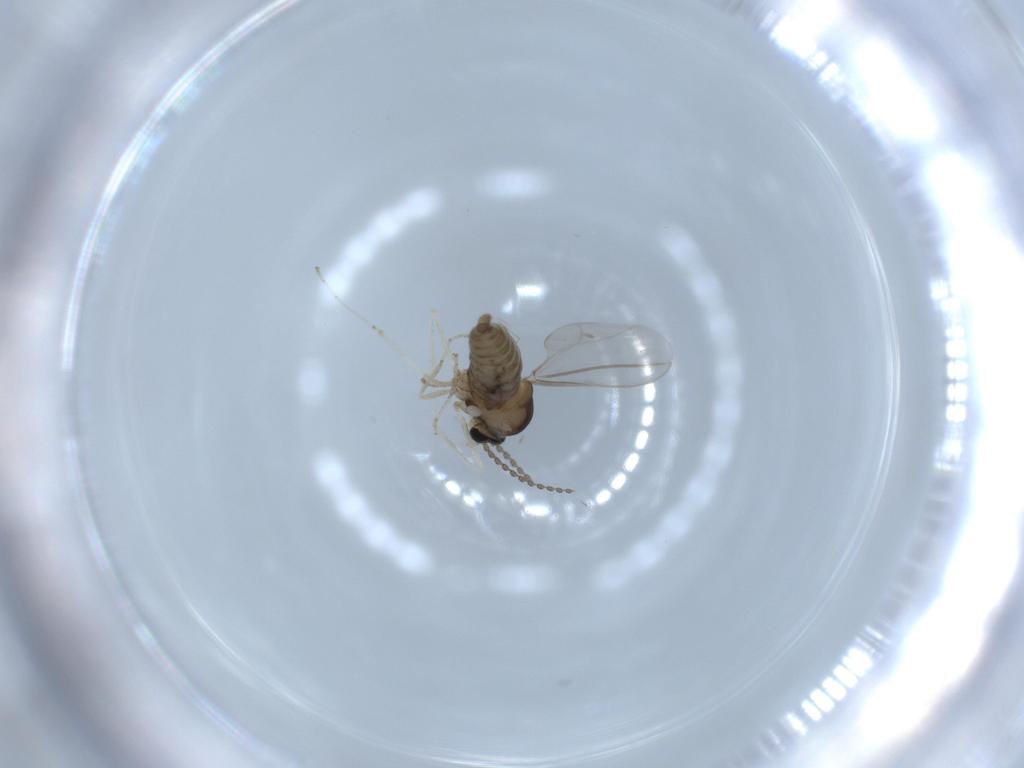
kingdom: Animalia
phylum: Arthropoda
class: Insecta
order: Diptera
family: Cecidomyiidae
